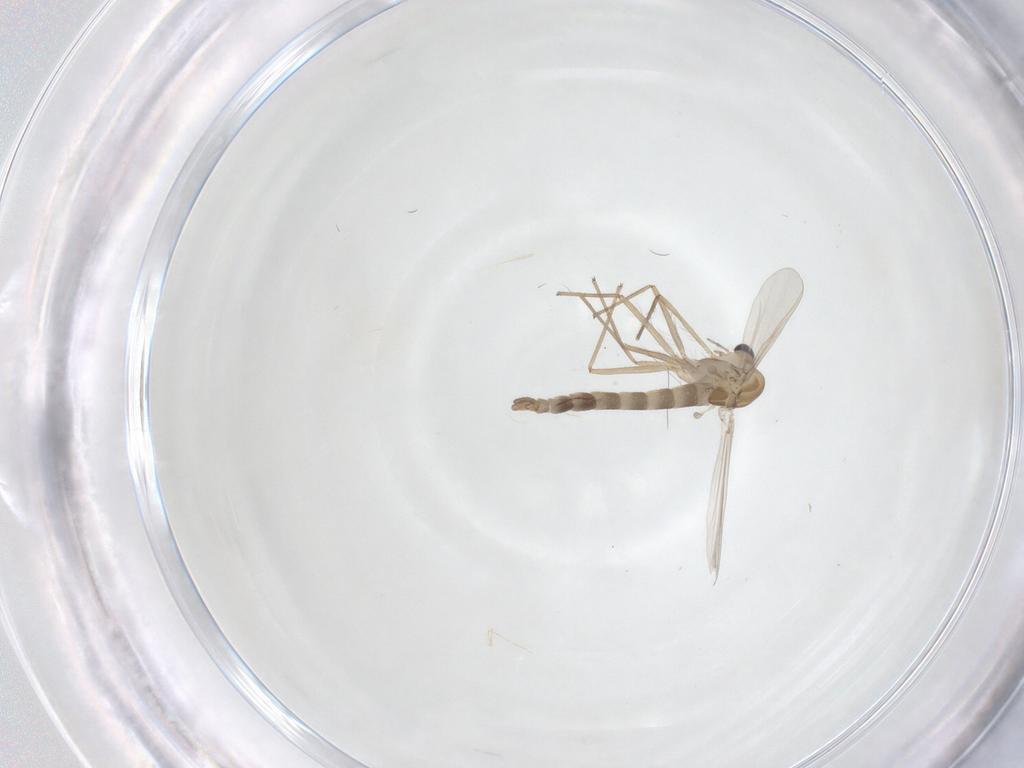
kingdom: Animalia
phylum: Arthropoda
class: Insecta
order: Diptera
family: Chironomidae
